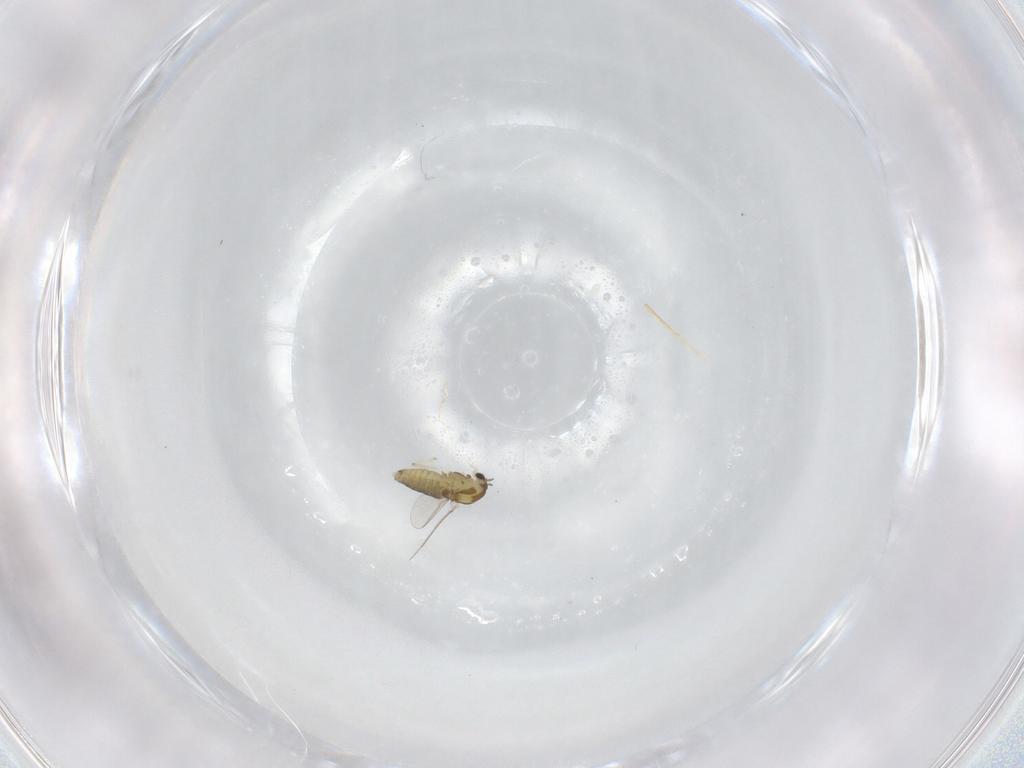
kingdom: Animalia
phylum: Arthropoda
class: Insecta
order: Diptera
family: Chironomidae
